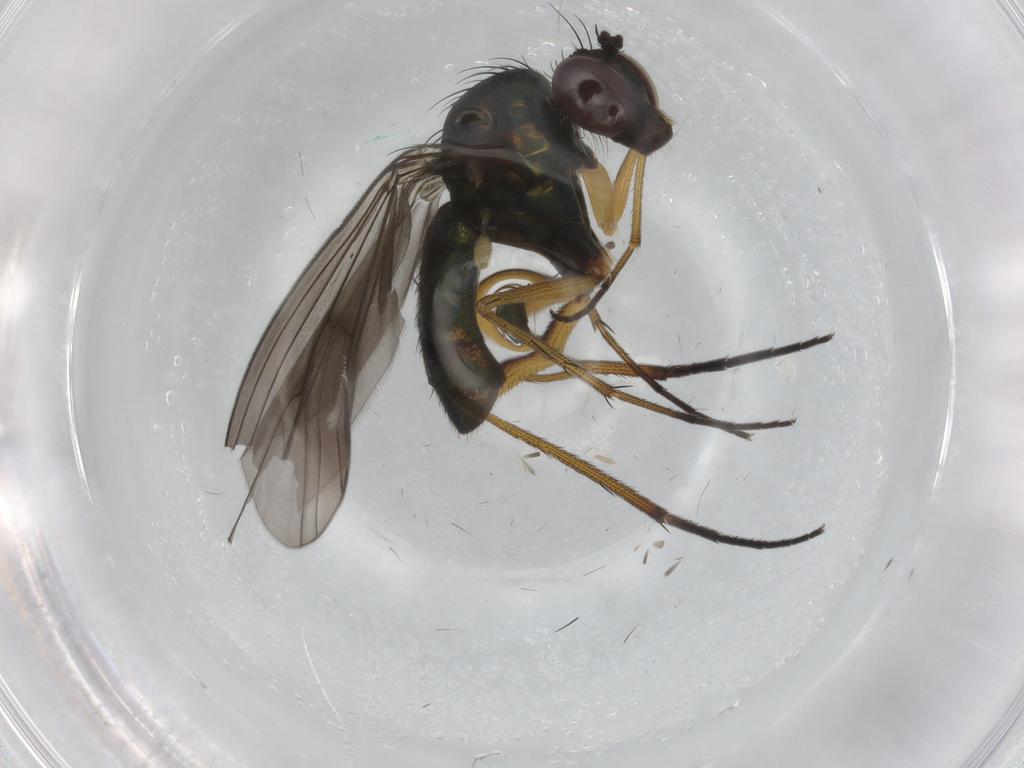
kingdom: Animalia
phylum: Arthropoda
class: Insecta
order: Diptera
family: Dolichopodidae
